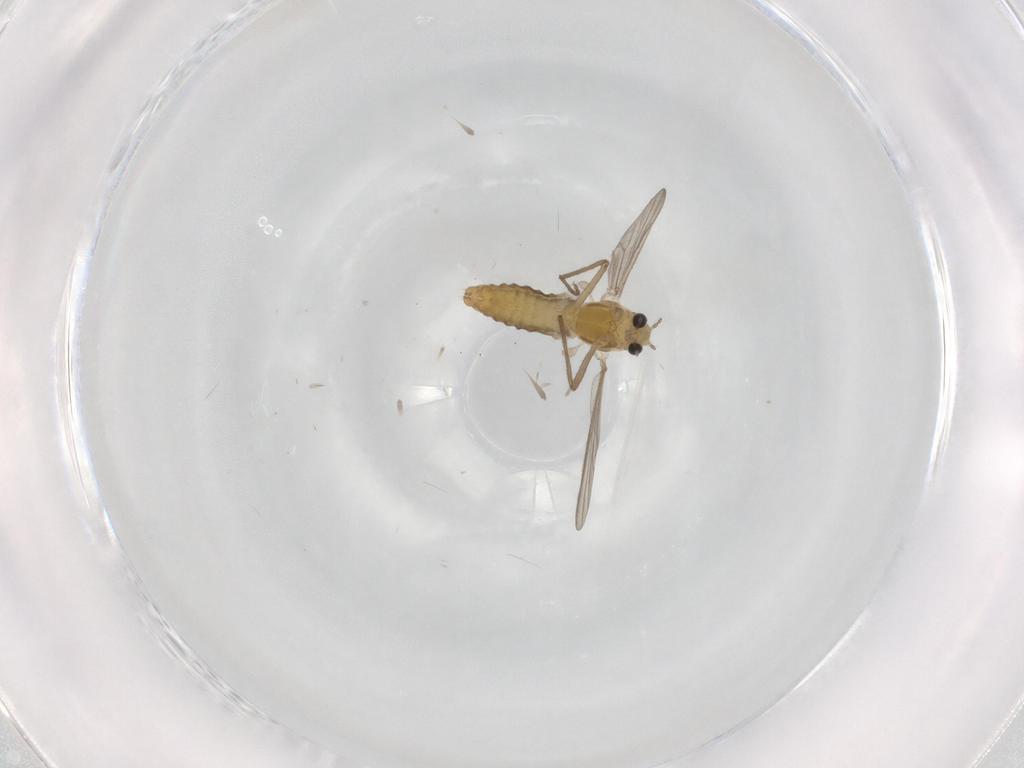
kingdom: Animalia
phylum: Arthropoda
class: Insecta
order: Diptera
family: Chironomidae
